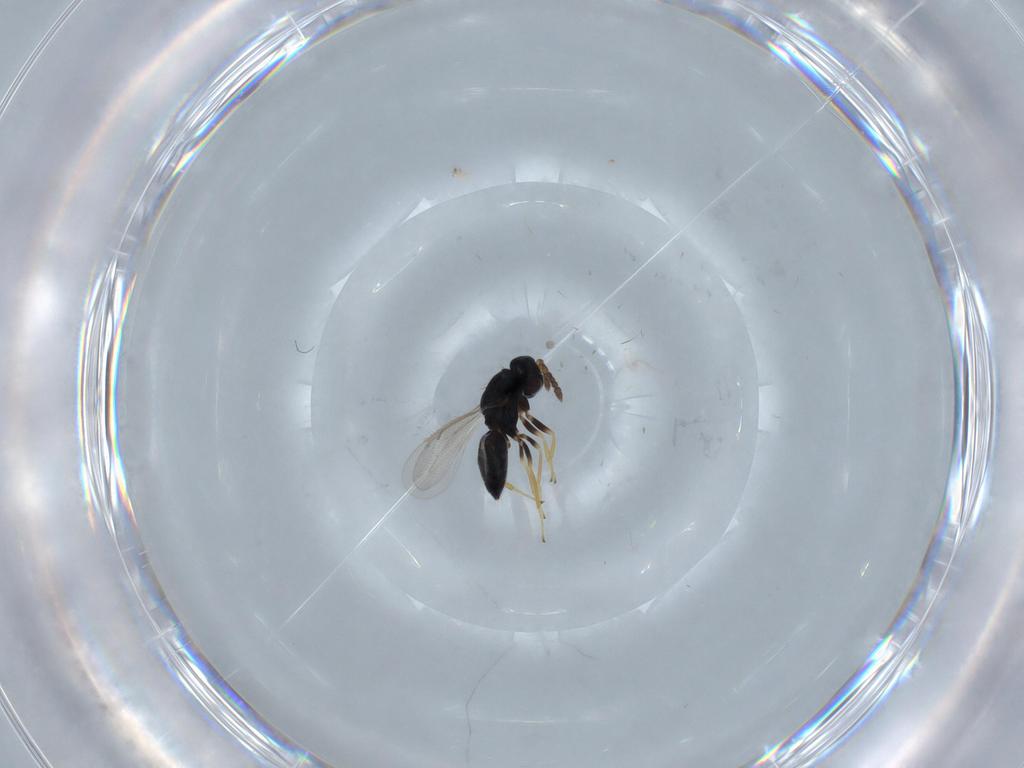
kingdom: Animalia
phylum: Arthropoda
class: Insecta
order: Hymenoptera
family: Eulophidae
